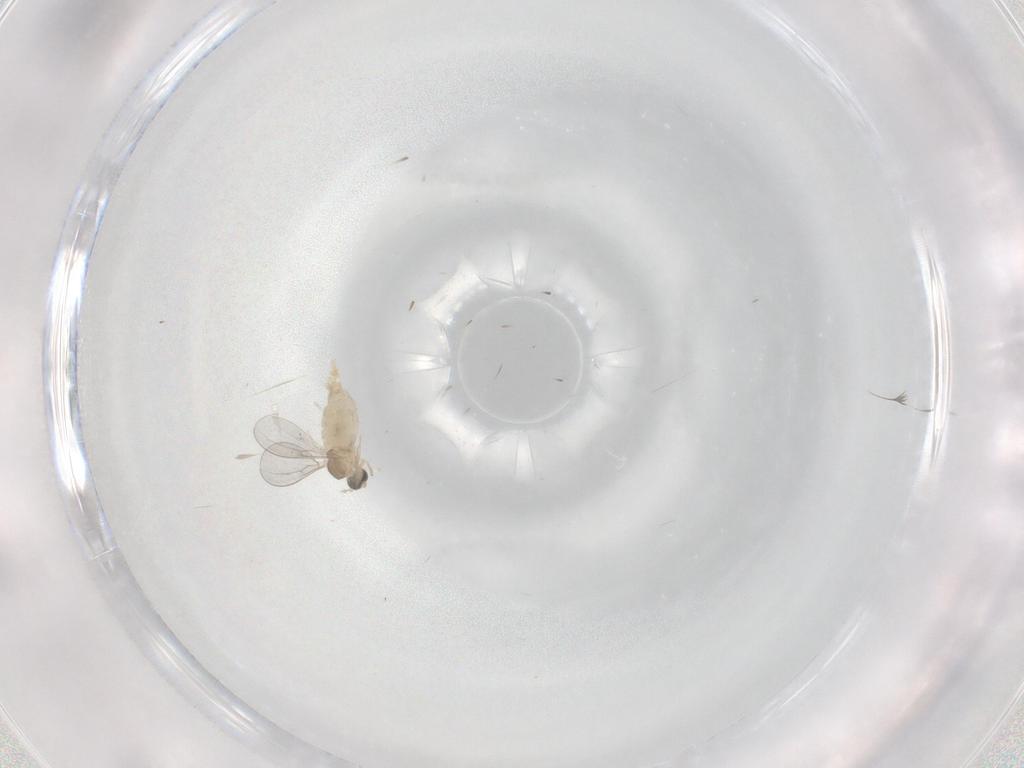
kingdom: Animalia
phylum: Arthropoda
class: Insecta
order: Diptera
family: Cecidomyiidae
